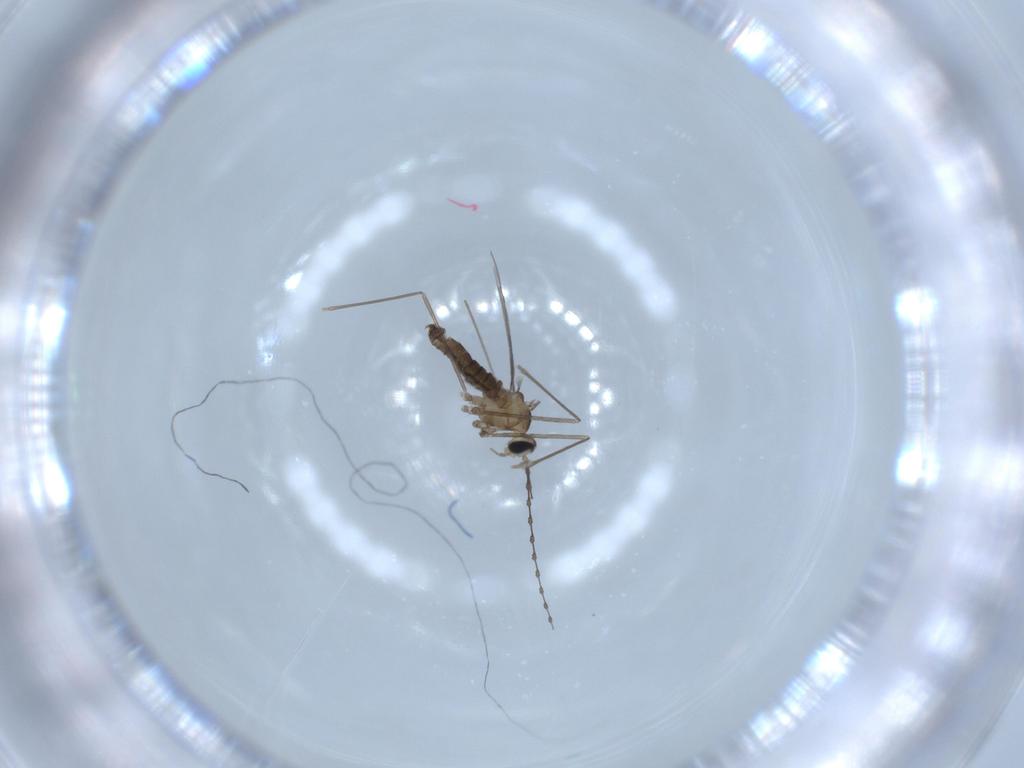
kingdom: Animalia
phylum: Arthropoda
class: Insecta
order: Diptera
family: Cecidomyiidae
